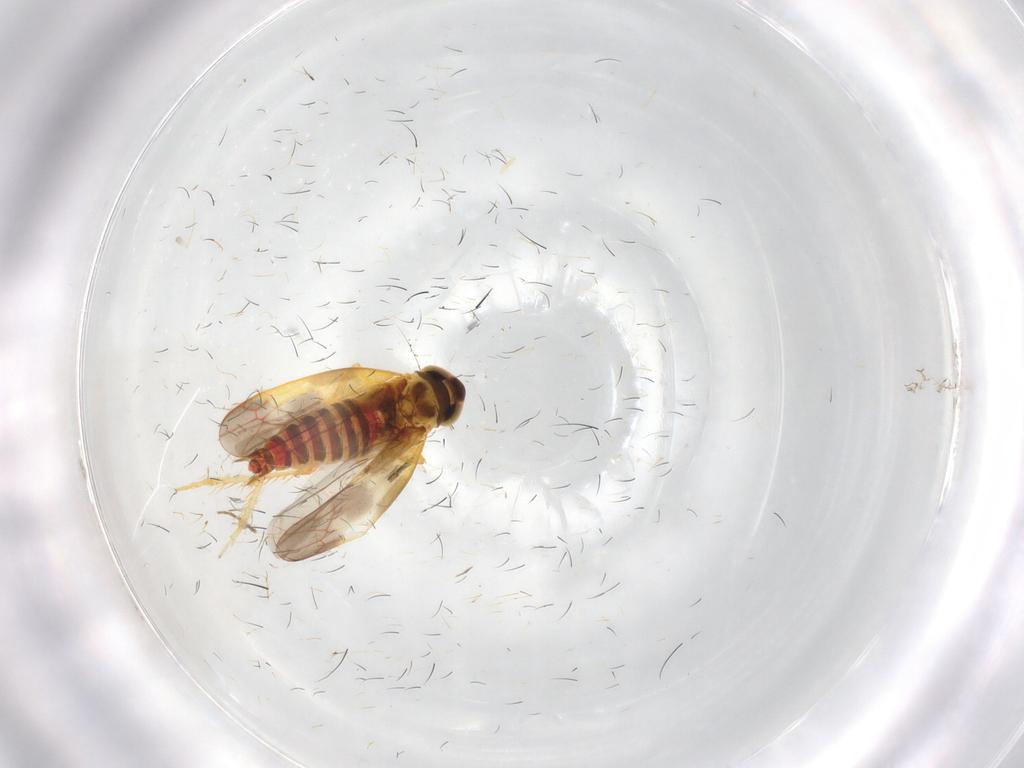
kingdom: Animalia
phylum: Arthropoda
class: Insecta
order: Hemiptera
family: Cicadellidae
